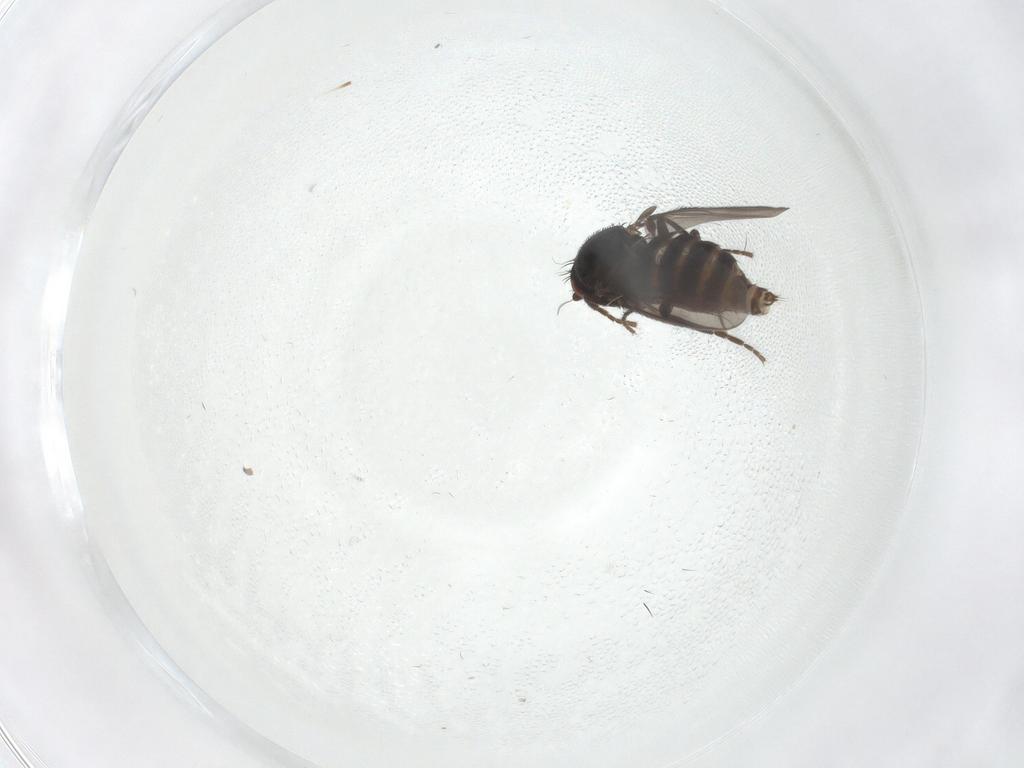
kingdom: Animalia
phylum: Arthropoda
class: Insecta
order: Diptera
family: Sphaeroceridae
